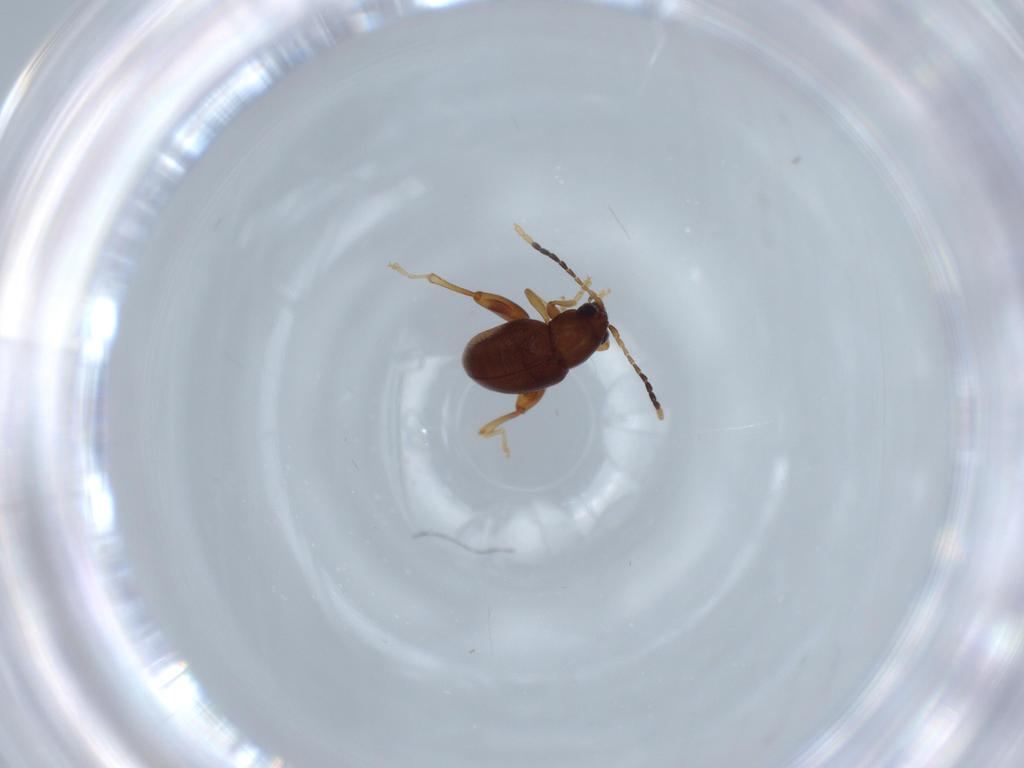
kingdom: Animalia
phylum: Arthropoda
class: Insecta
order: Coleoptera
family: Chrysomelidae
